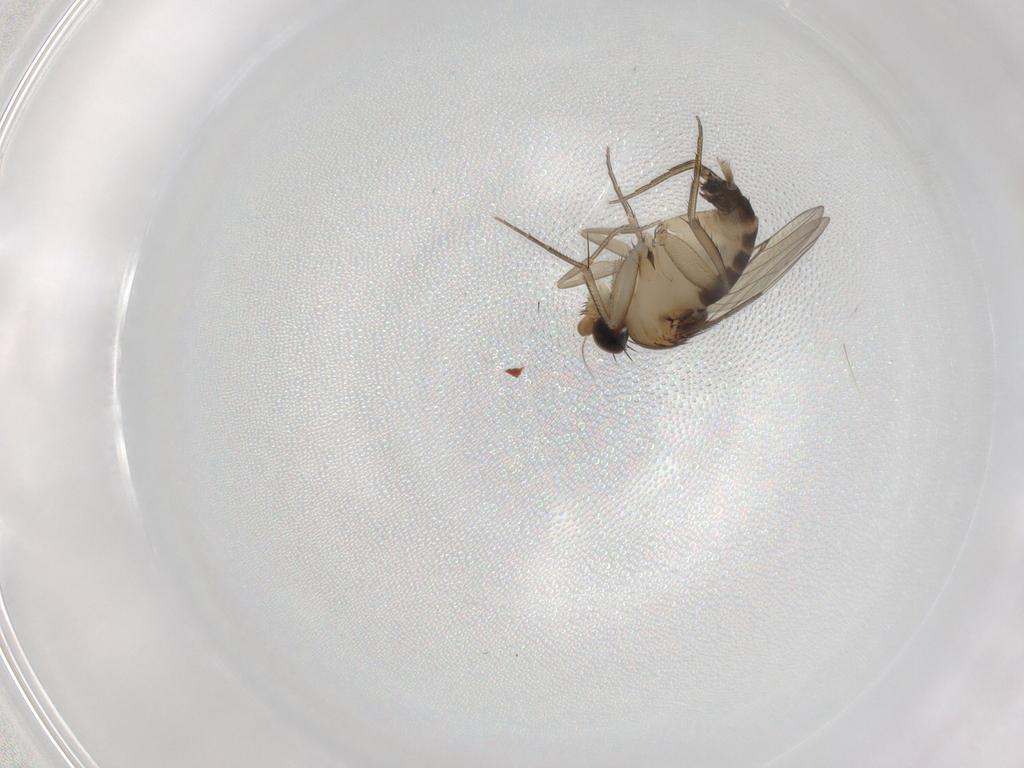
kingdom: Animalia
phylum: Arthropoda
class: Insecta
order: Diptera
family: Phoridae
